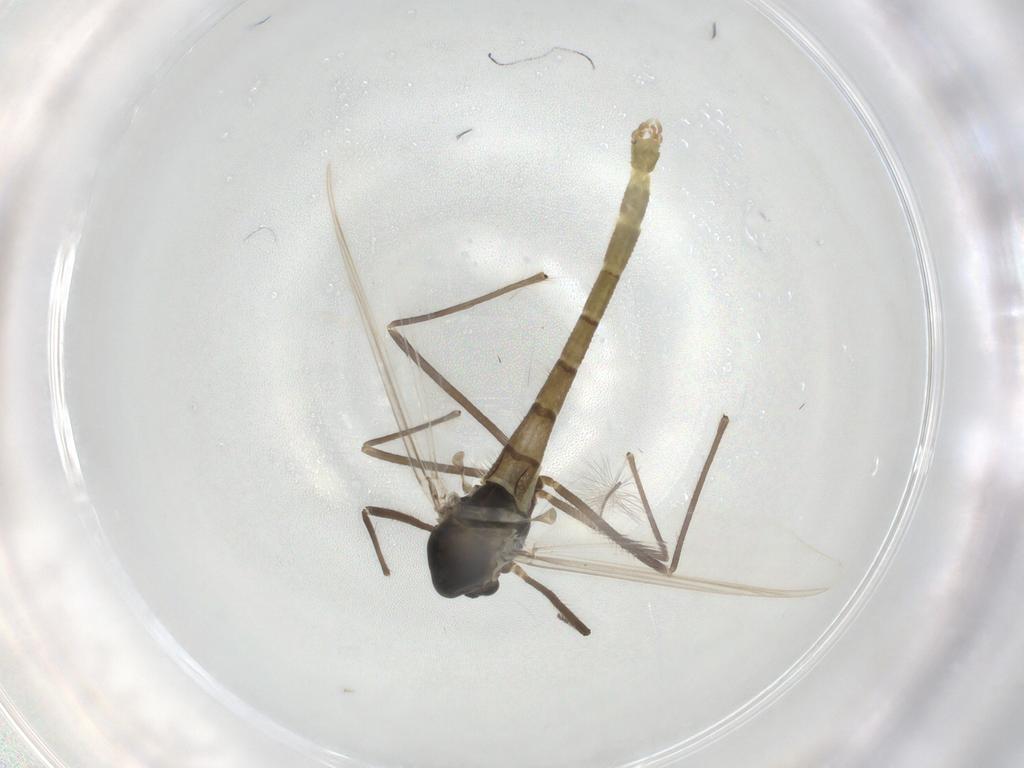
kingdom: Animalia
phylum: Arthropoda
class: Insecta
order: Diptera
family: Chironomidae
